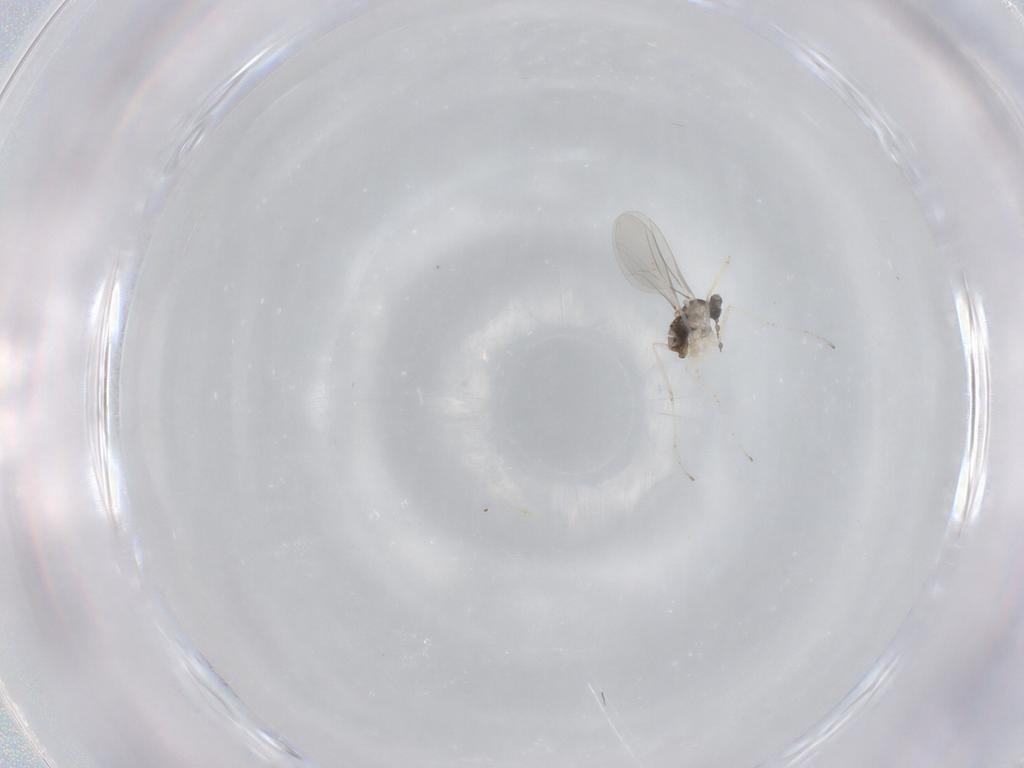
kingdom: Animalia
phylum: Arthropoda
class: Insecta
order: Diptera
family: Cecidomyiidae
